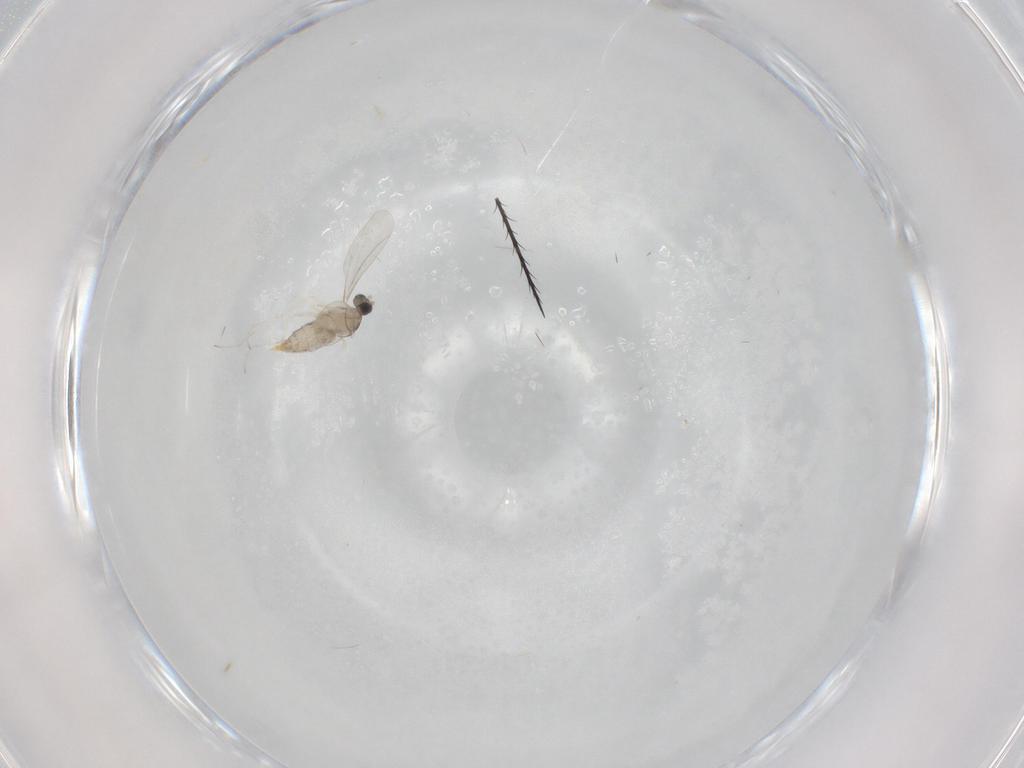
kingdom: Animalia
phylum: Arthropoda
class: Insecta
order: Diptera
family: Cecidomyiidae
